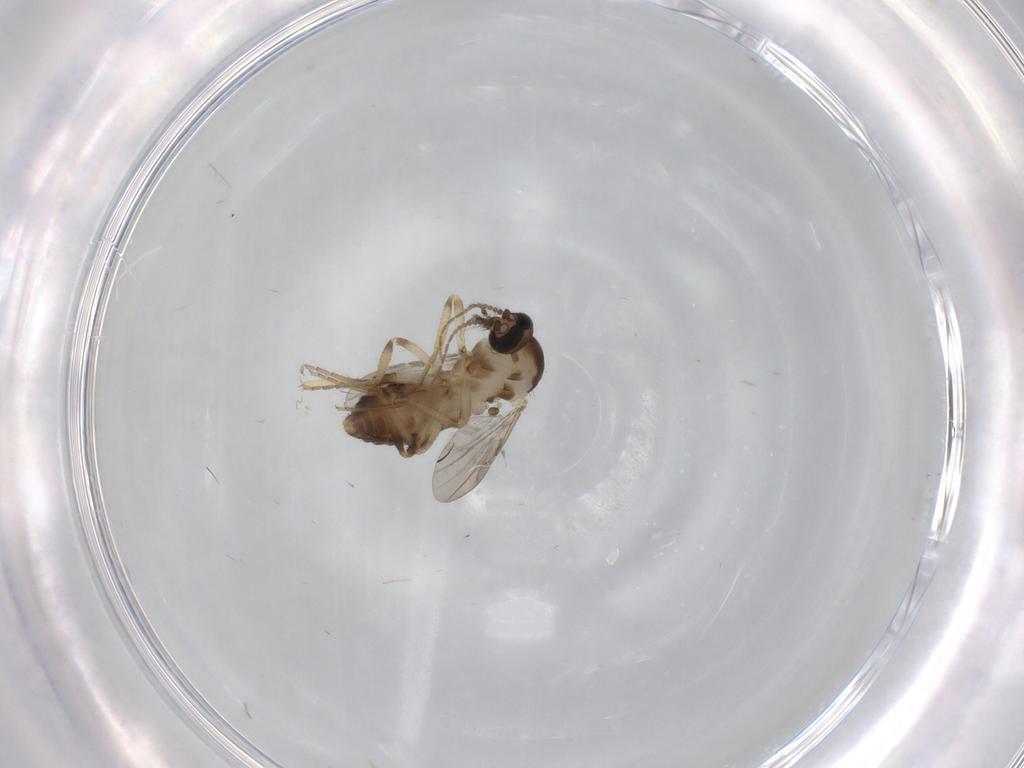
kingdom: Animalia
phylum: Arthropoda
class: Insecta
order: Diptera
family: Ceratopogonidae
